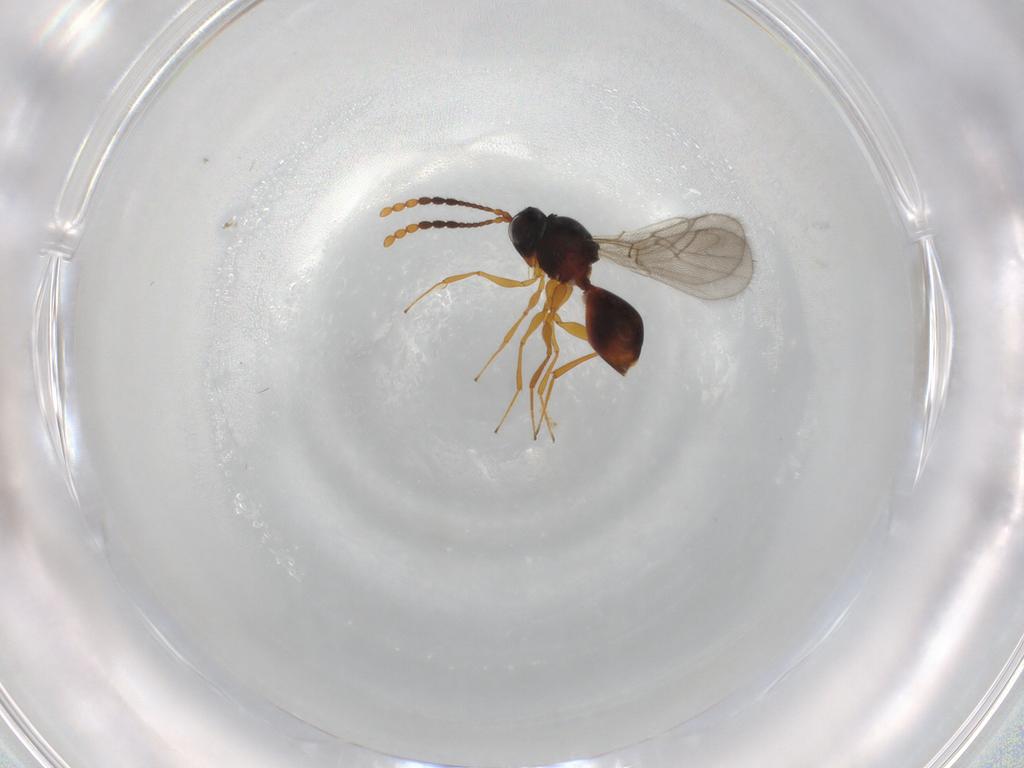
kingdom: Animalia
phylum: Arthropoda
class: Insecta
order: Hymenoptera
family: Figitidae
